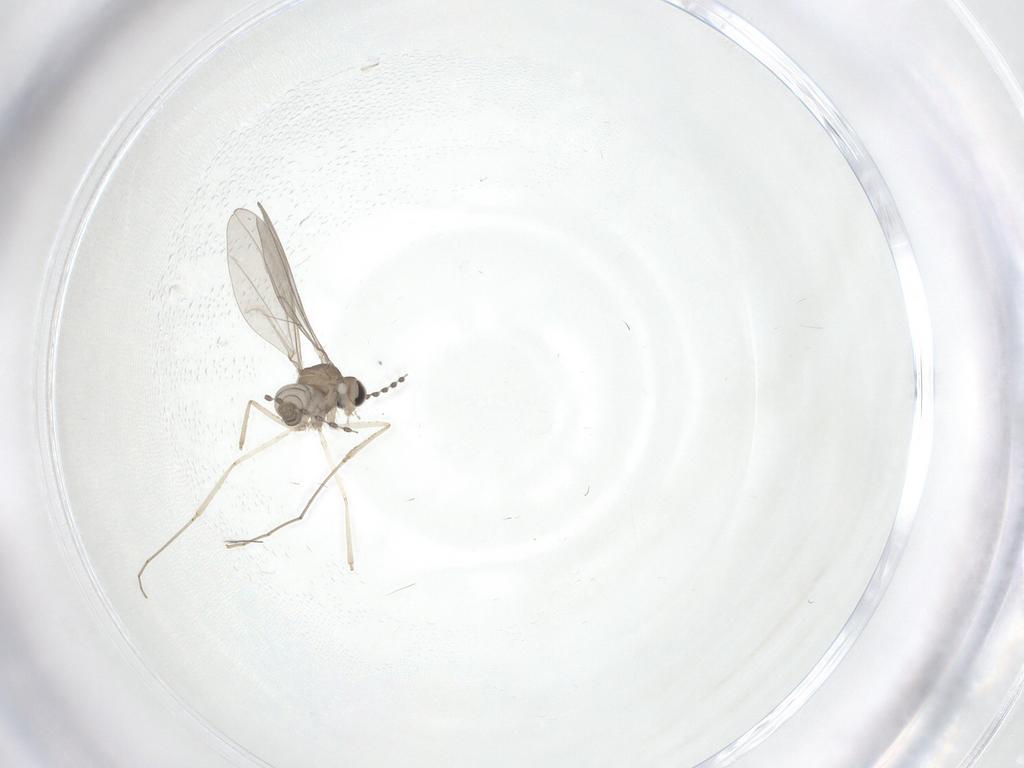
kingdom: Animalia
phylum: Arthropoda
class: Insecta
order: Diptera
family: Cecidomyiidae
